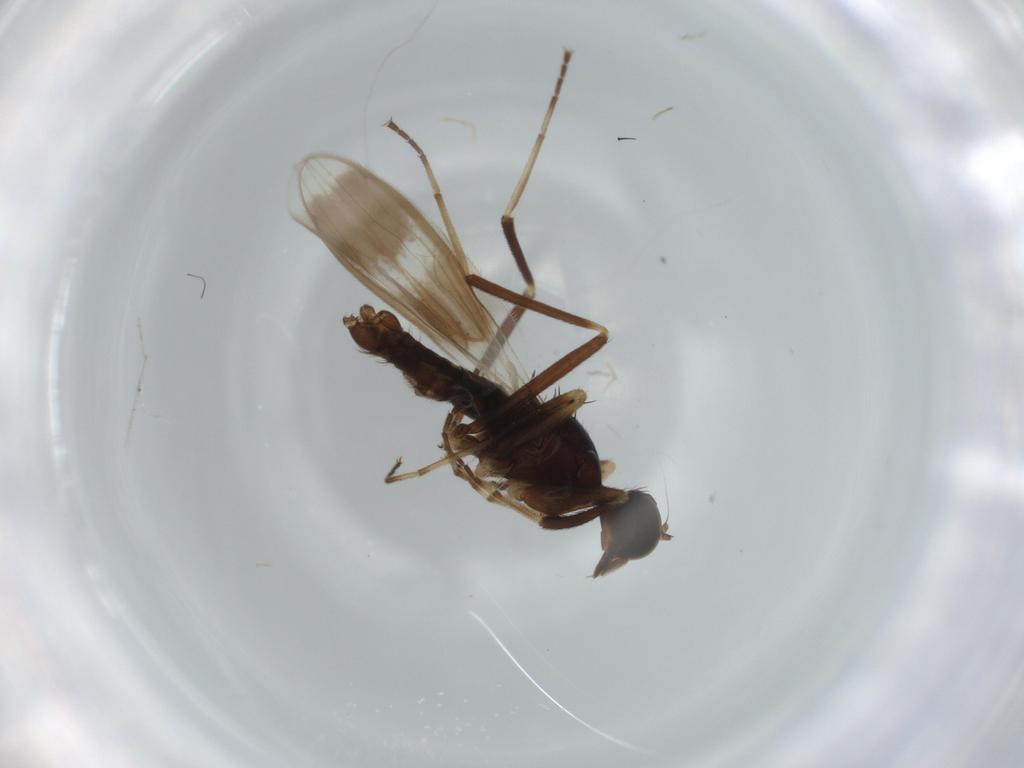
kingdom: Animalia
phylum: Arthropoda
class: Insecta
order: Diptera
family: Hybotidae
